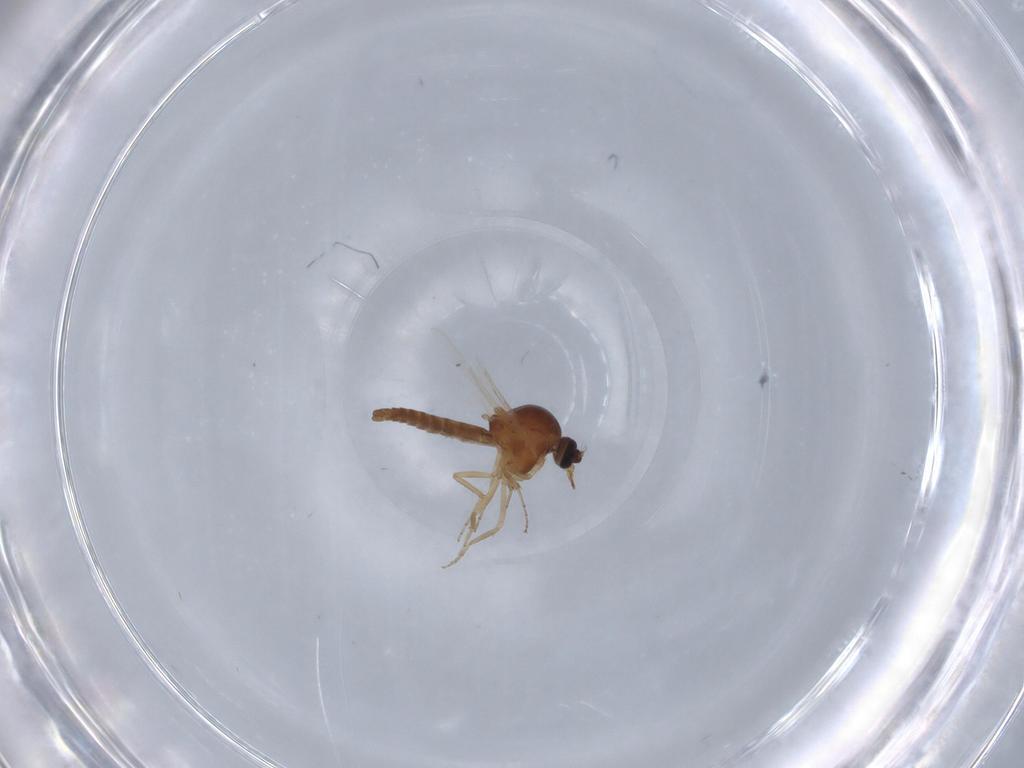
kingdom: Animalia
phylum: Arthropoda
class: Insecta
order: Diptera
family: Ceratopogonidae
